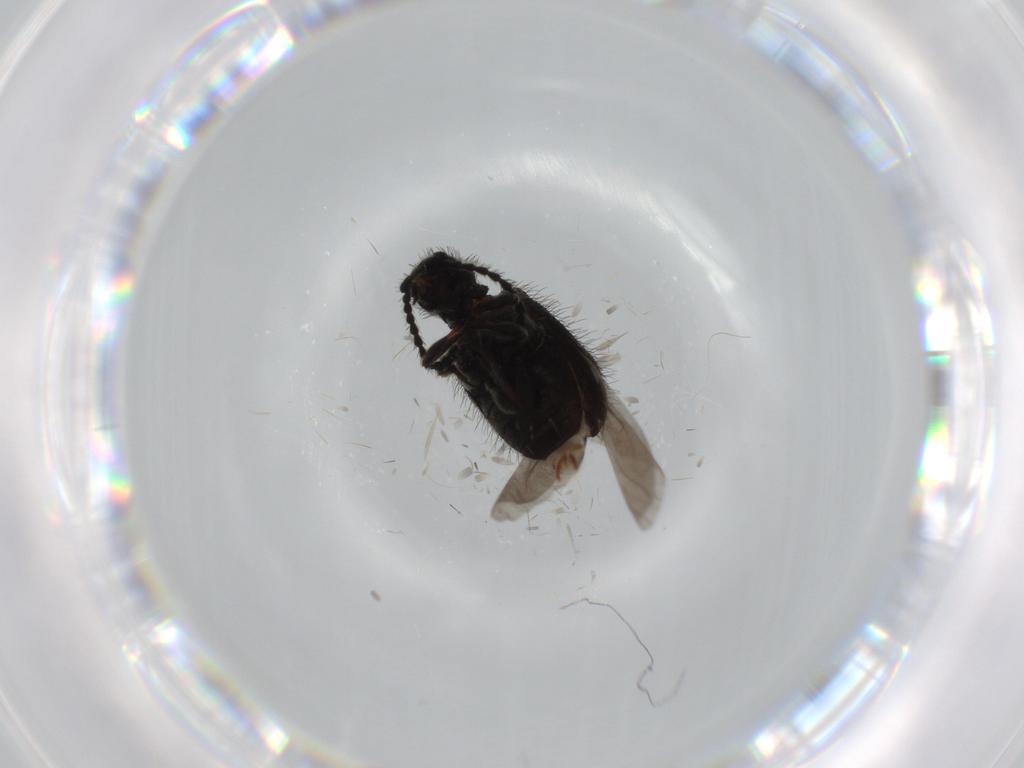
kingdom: Animalia
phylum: Arthropoda
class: Insecta
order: Coleoptera
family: Ptinidae
